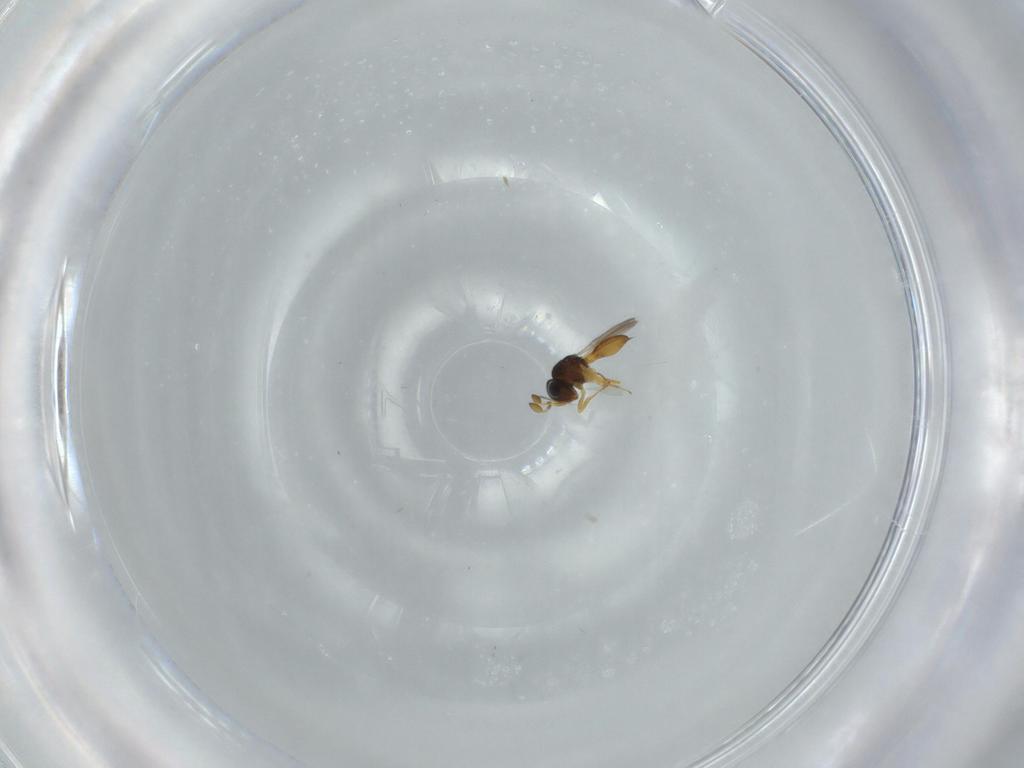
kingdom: Animalia
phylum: Arthropoda
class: Insecta
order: Hymenoptera
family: Scelionidae
